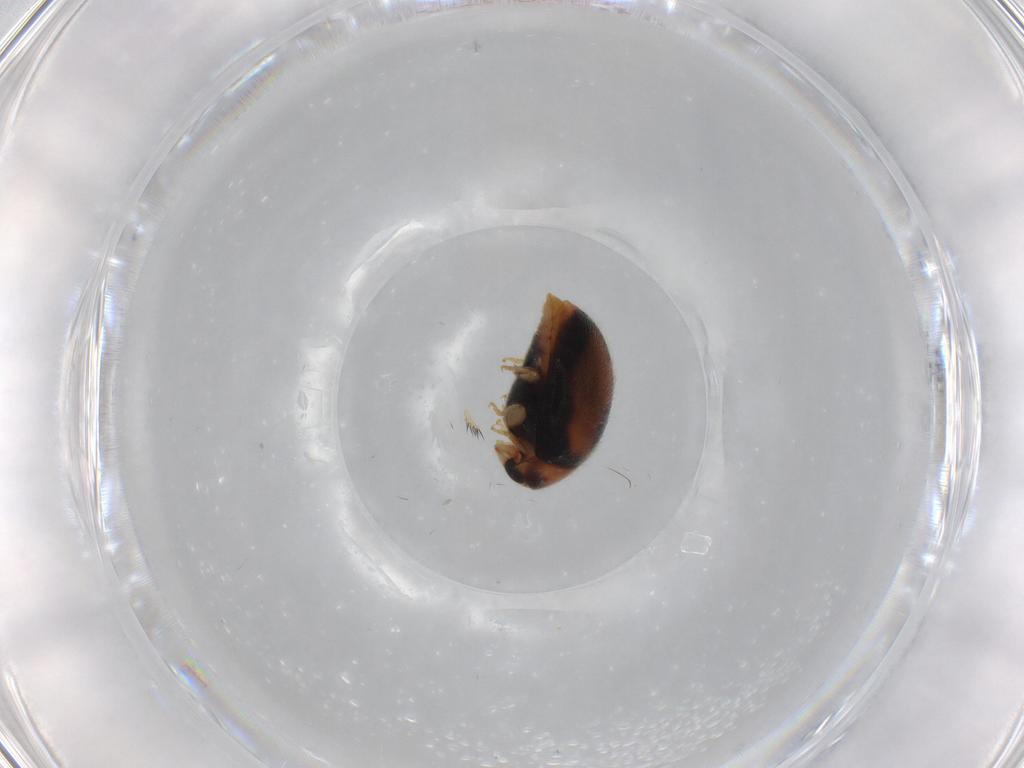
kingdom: Animalia
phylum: Arthropoda
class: Insecta
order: Coleoptera
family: Coccinellidae
